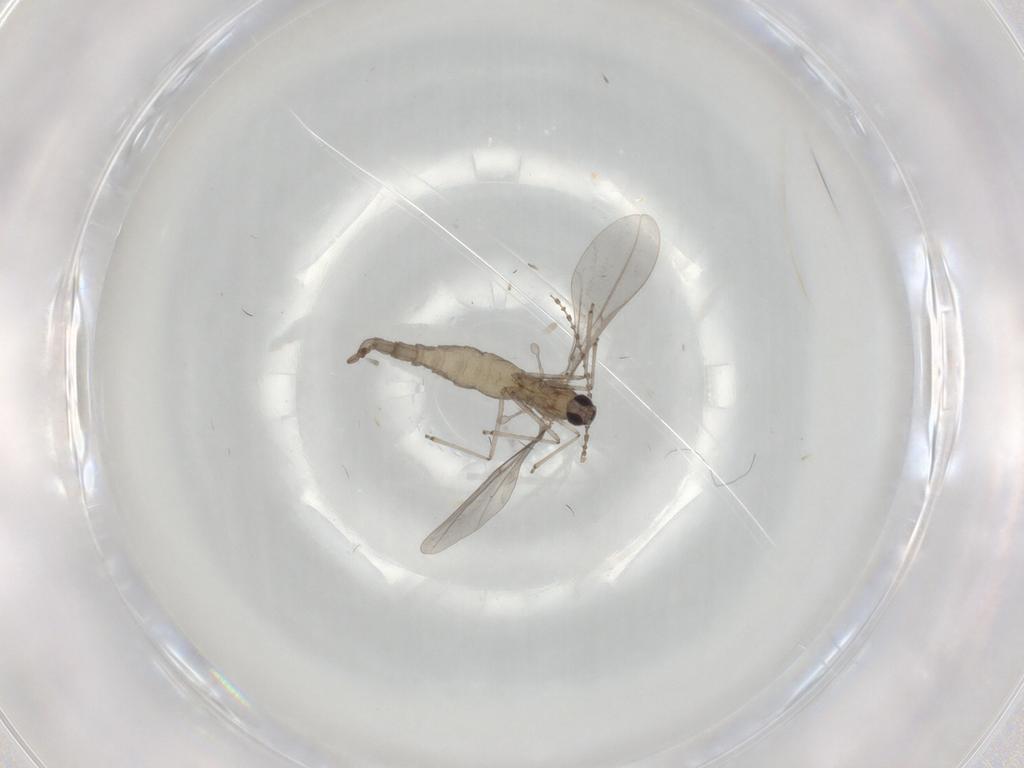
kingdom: Animalia
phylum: Arthropoda
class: Insecta
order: Diptera
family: Cecidomyiidae
